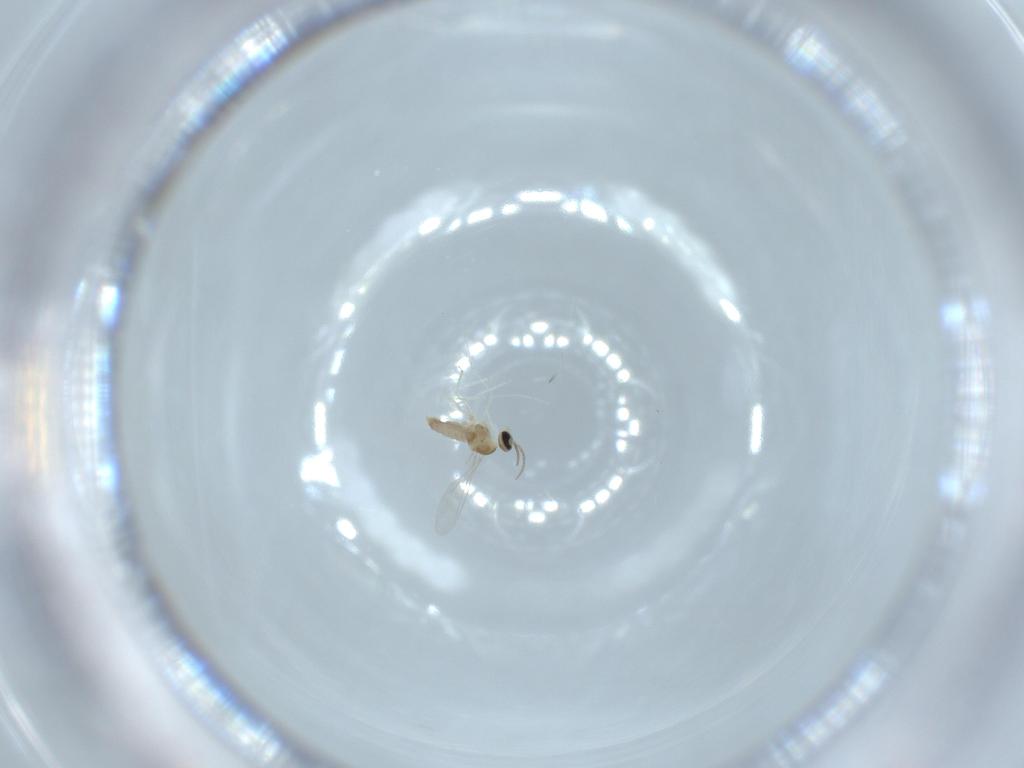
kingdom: Animalia
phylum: Arthropoda
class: Insecta
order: Diptera
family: Cecidomyiidae
